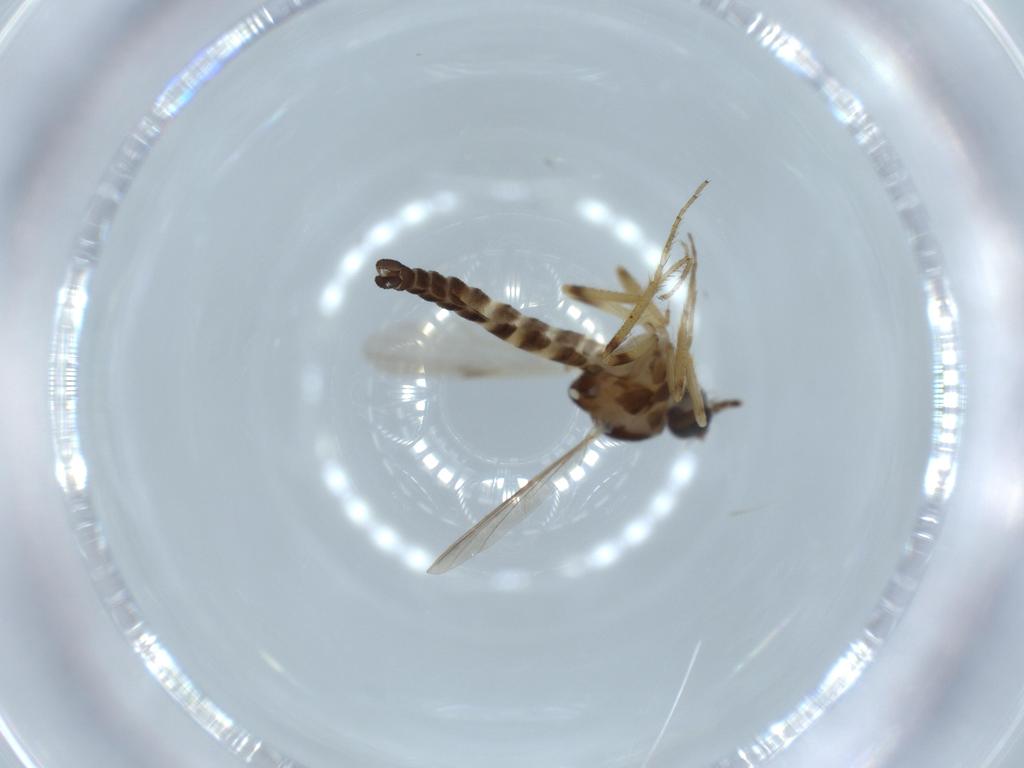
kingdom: Animalia
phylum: Arthropoda
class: Insecta
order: Diptera
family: Ceratopogonidae
